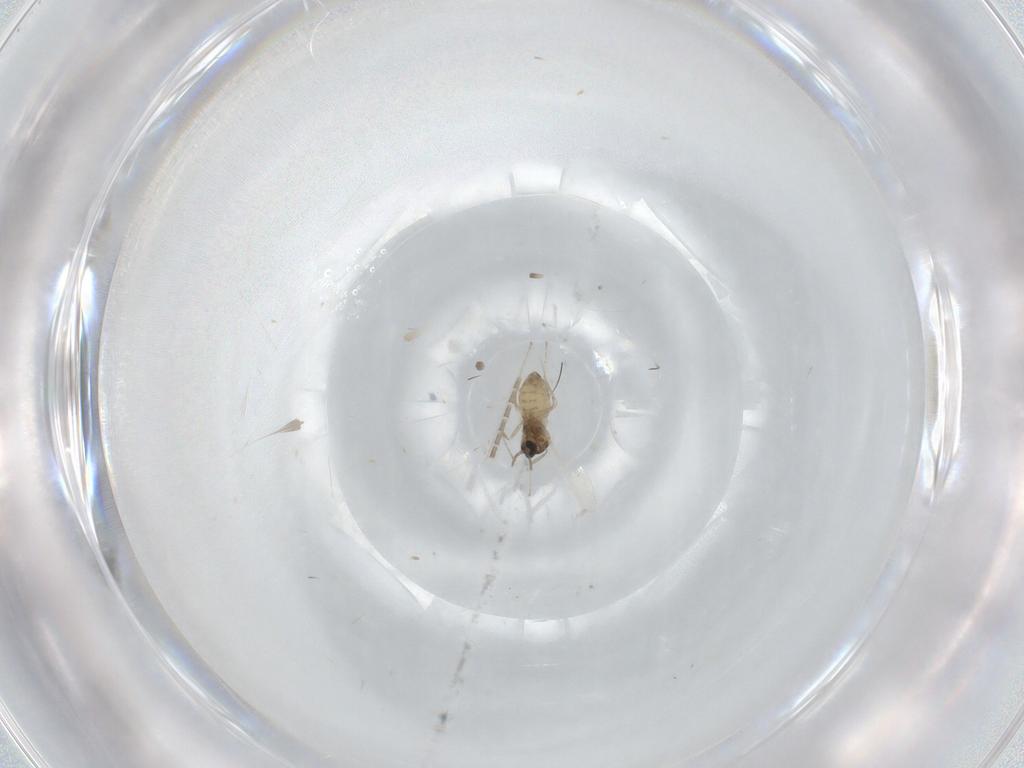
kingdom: Animalia
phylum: Arthropoda
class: Insecta
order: Diptera
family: Cecidomyiidae
